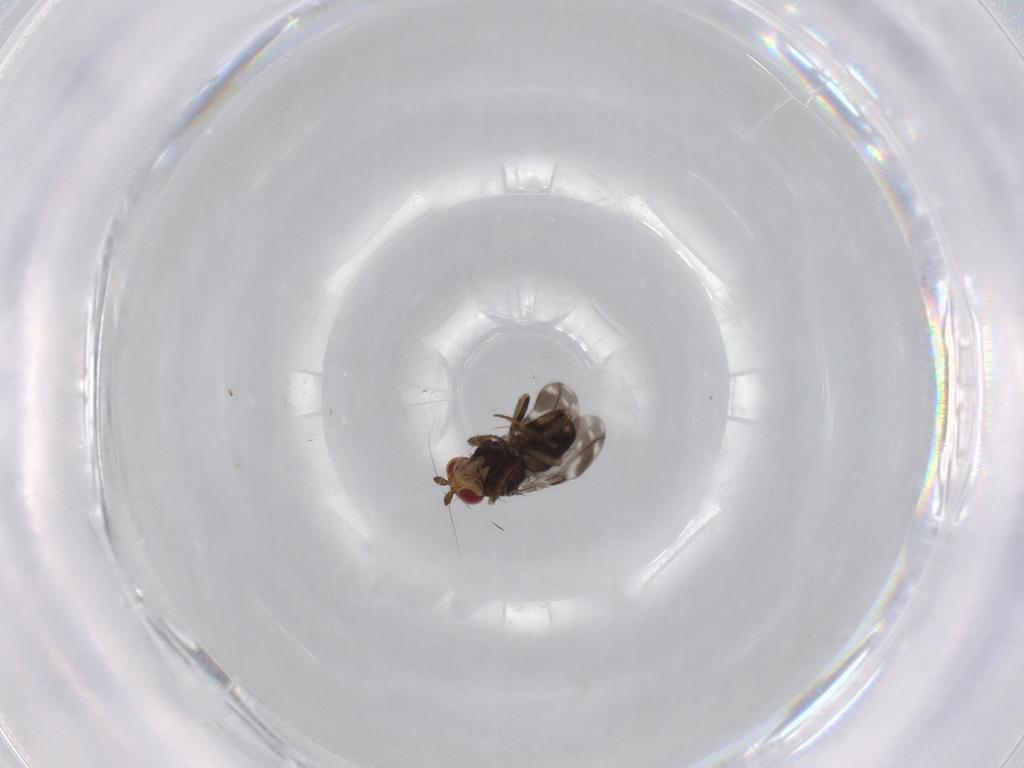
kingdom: Animalia
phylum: Arthropoda
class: Insecta
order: Diptera
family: Sphaeroceridae
